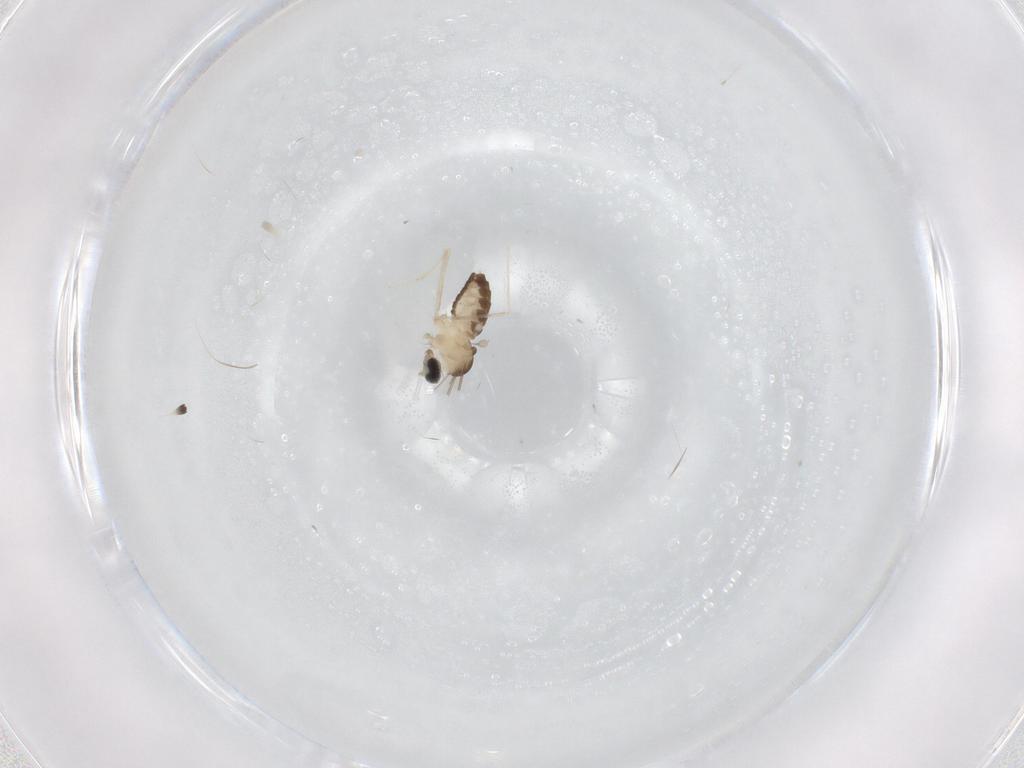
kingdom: Animalia
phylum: Arthropoda
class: Insecta
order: Diptera
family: Cecidomyiidae
